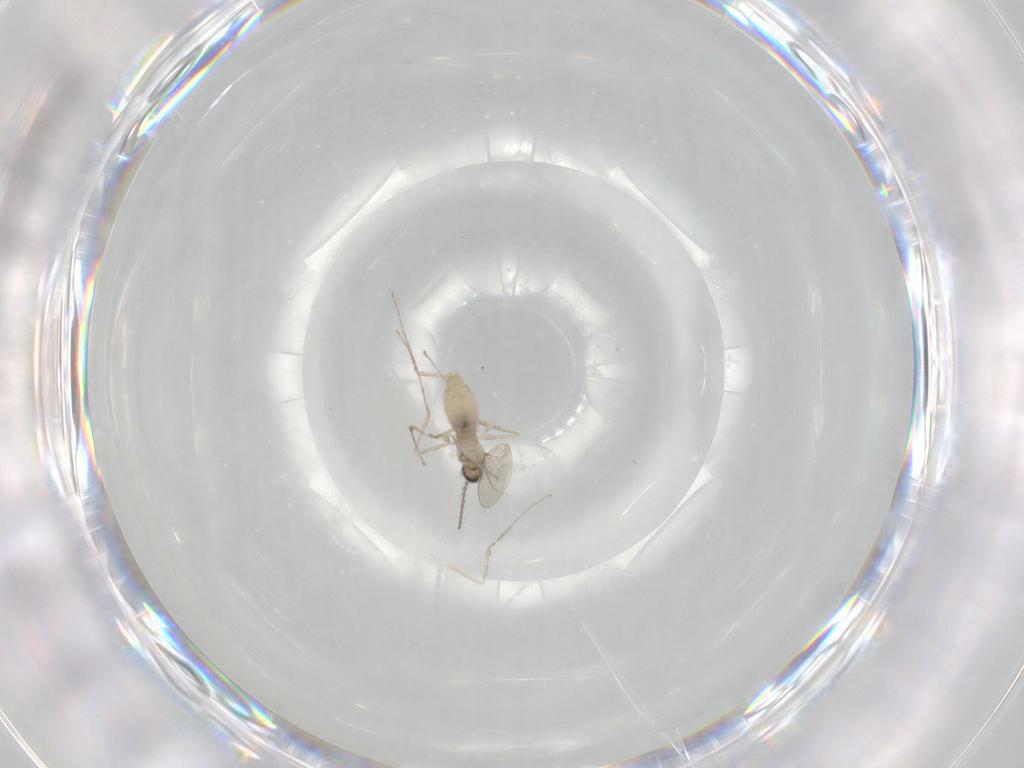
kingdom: Animalia
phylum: Arthropoda
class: Insecta
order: Diptera
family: Cecidomyiidae
